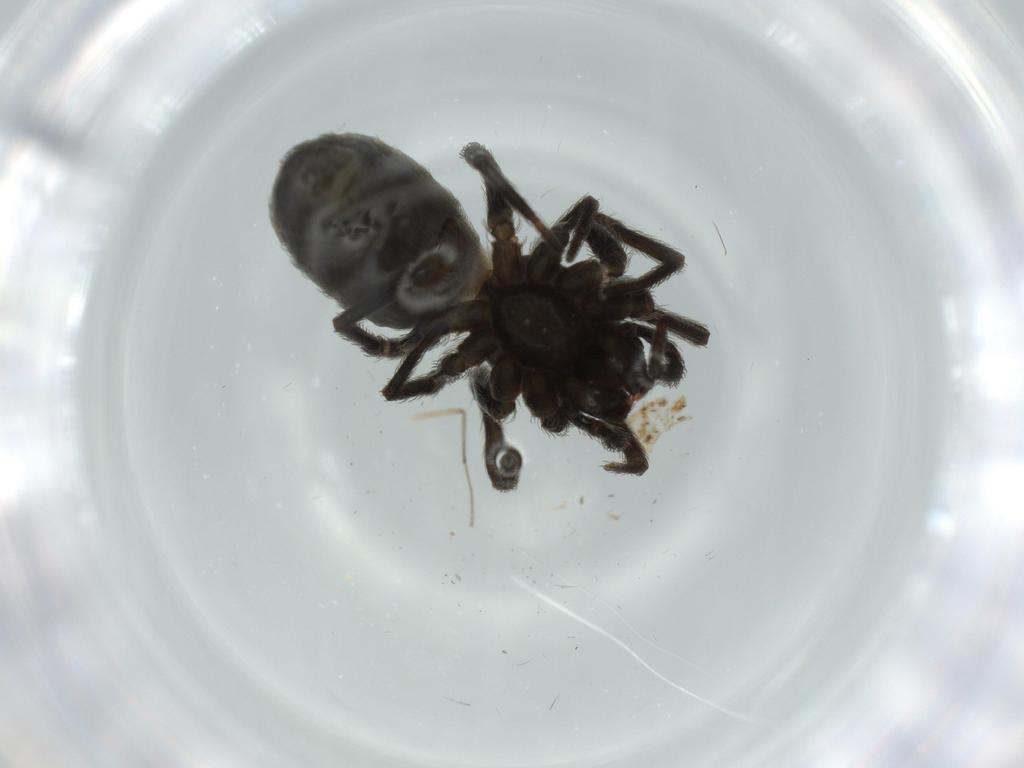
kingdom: Animalia
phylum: Arthropoda
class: Arachnida
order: Araneae
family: Dictynidae
